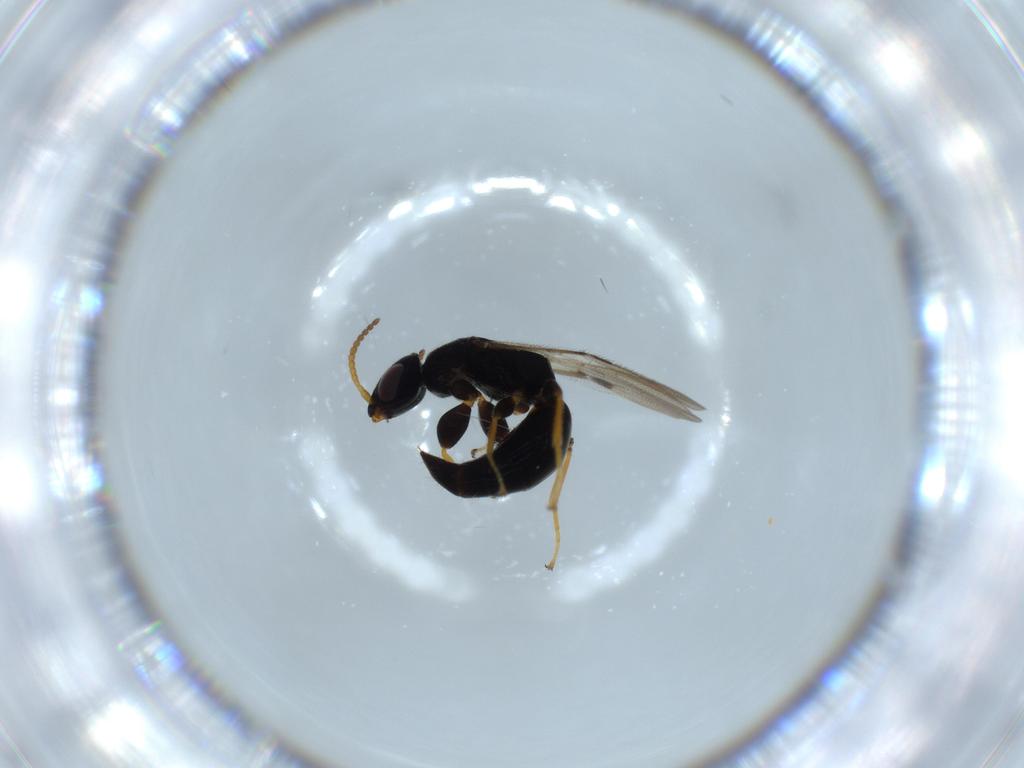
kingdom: Animalia
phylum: Arthropoda
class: Insecta
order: Hymenoptera
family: Bethylidae
